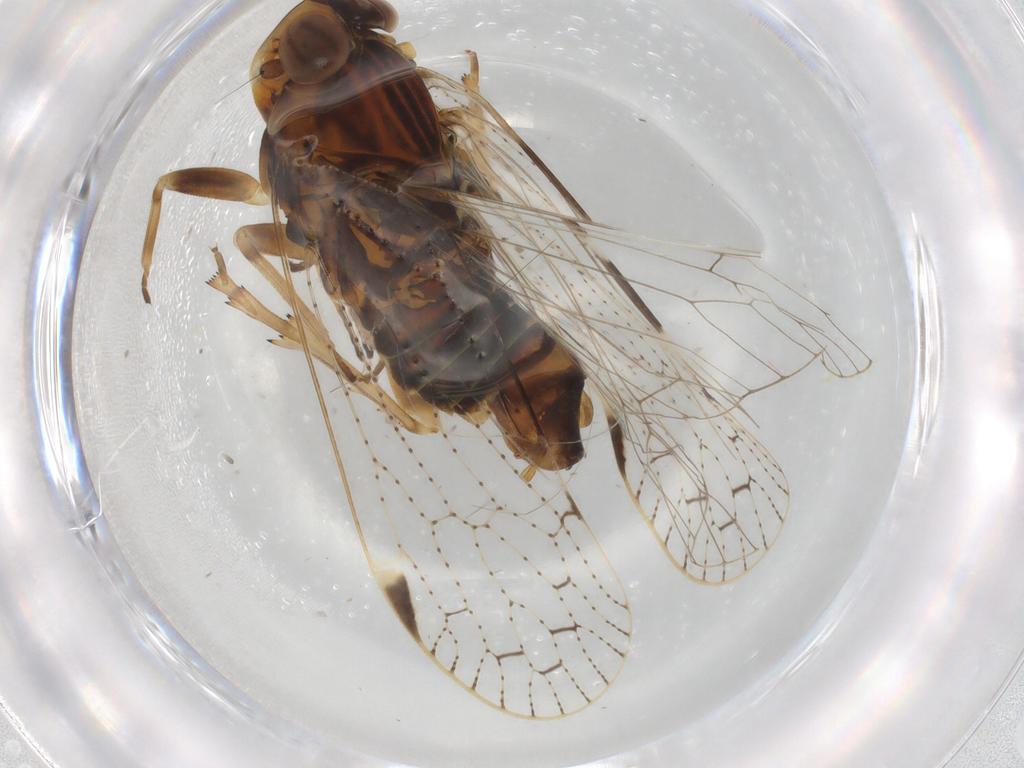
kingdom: Animalia
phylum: Arthropoda
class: Insecta
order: Hemiptera
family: Cixiidae
